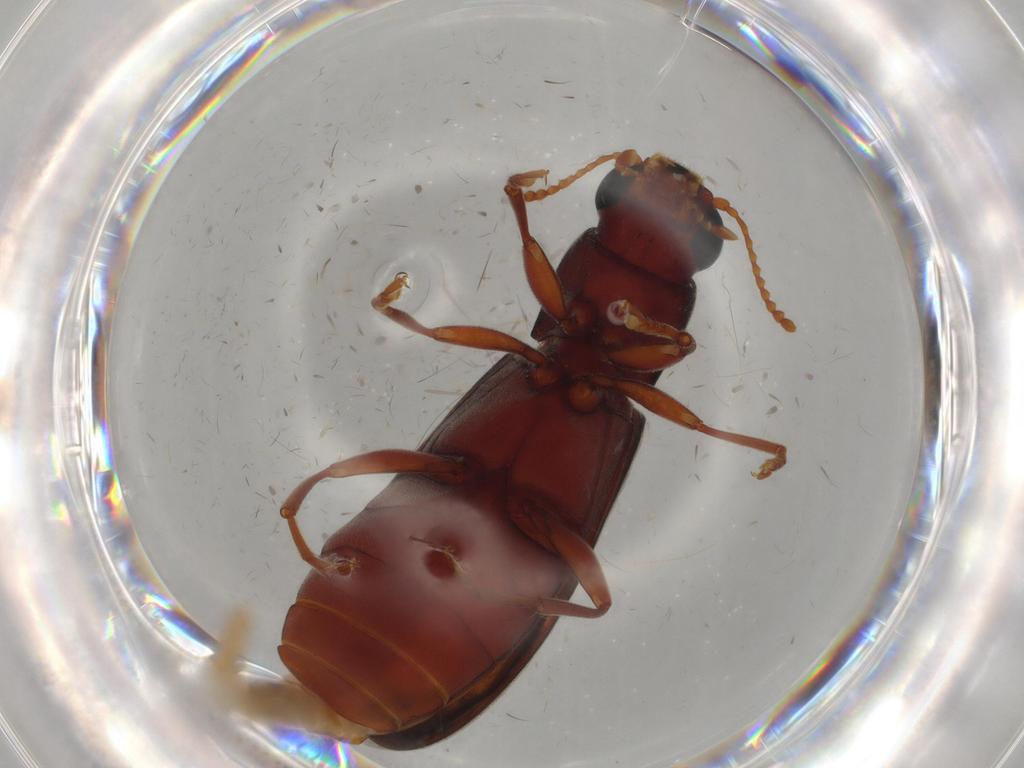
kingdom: Animalia
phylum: Arthropoda
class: Insecta
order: Coleoptera
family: Mycteridae
